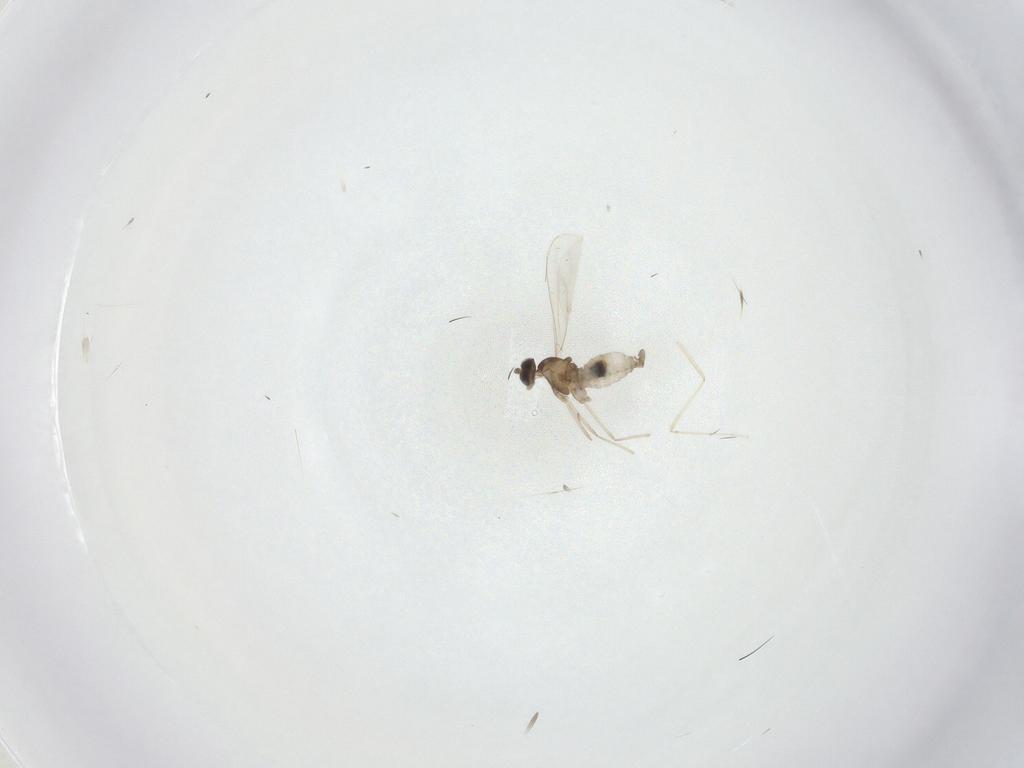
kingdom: Animalia
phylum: Arthropoda
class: Insecta
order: Diptera
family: Cecidomyiidae
